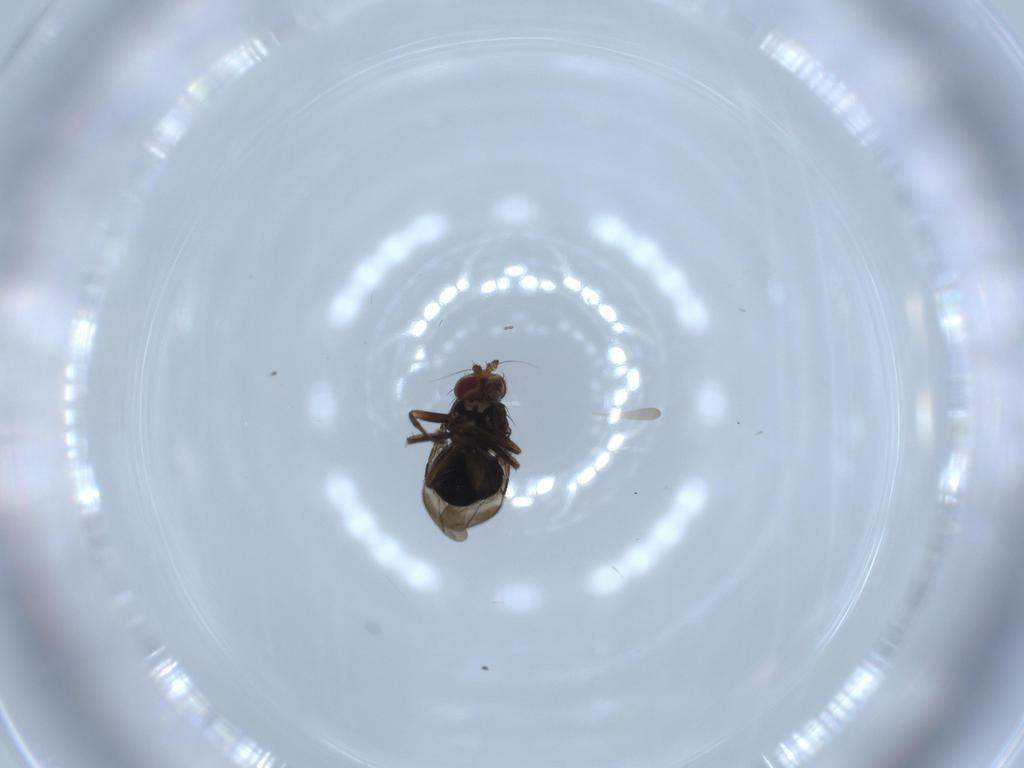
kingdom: Animalia
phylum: Arthropoda
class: Insecta
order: Diptera
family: Sphaeroceridae
